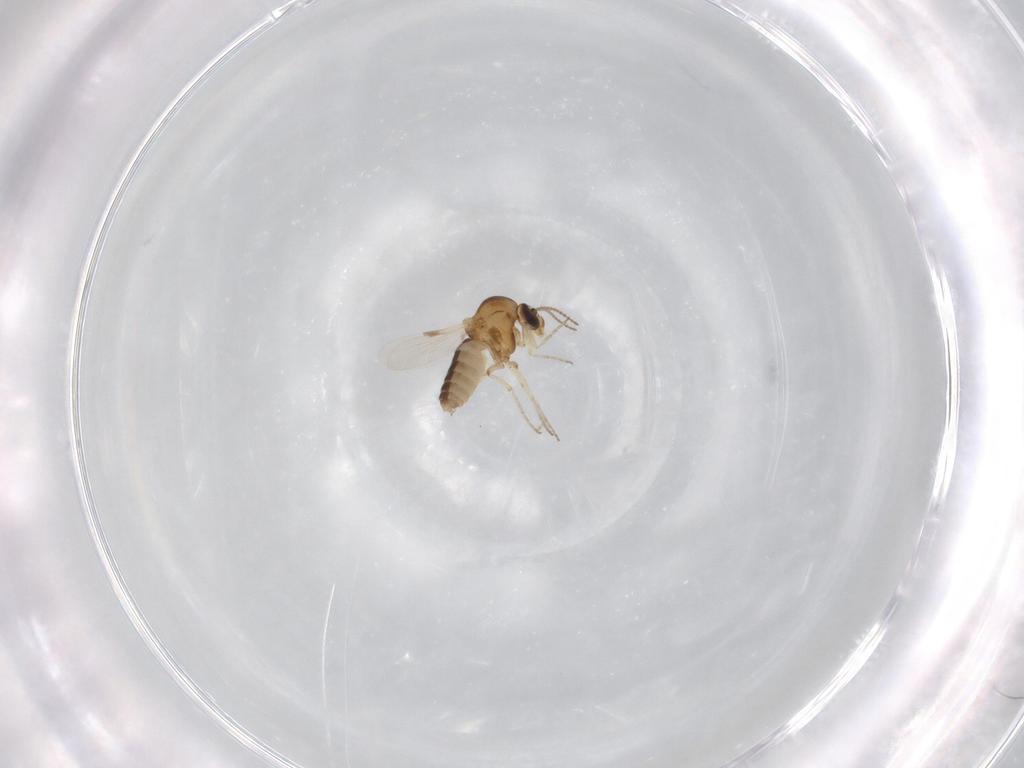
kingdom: Animalia
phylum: Arthropoda
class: Insecta
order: Diptera
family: Ceratopogonidae
